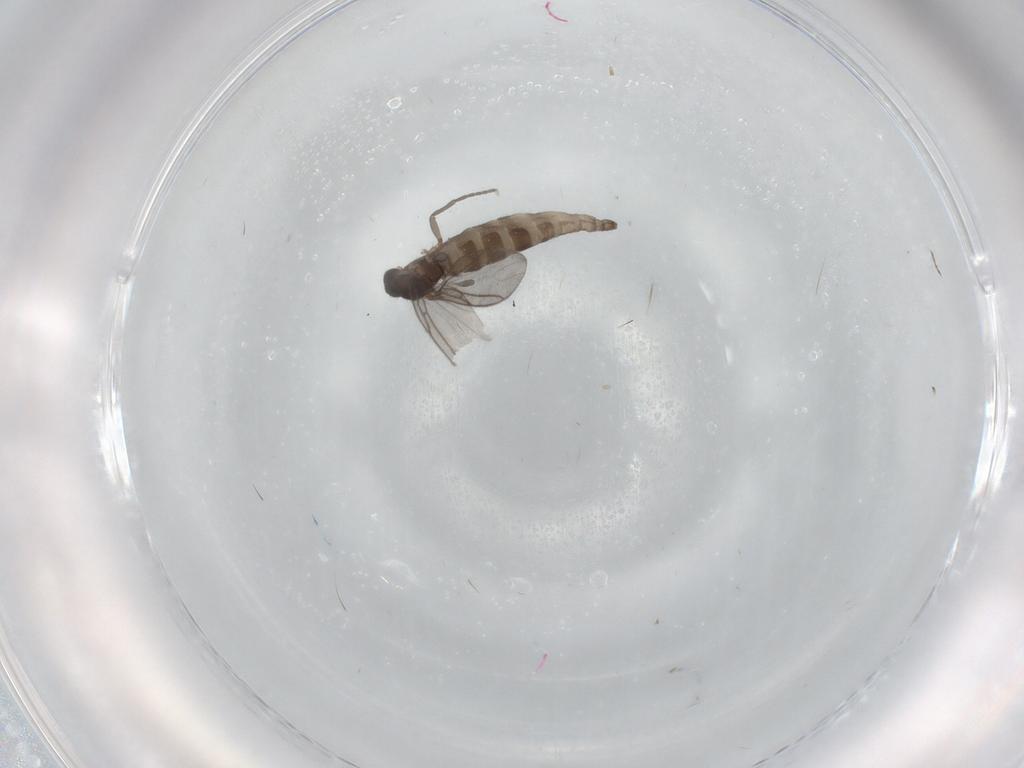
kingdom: Animalia
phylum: Arthropoda
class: Insecta
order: Diptera
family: Sciaridae
